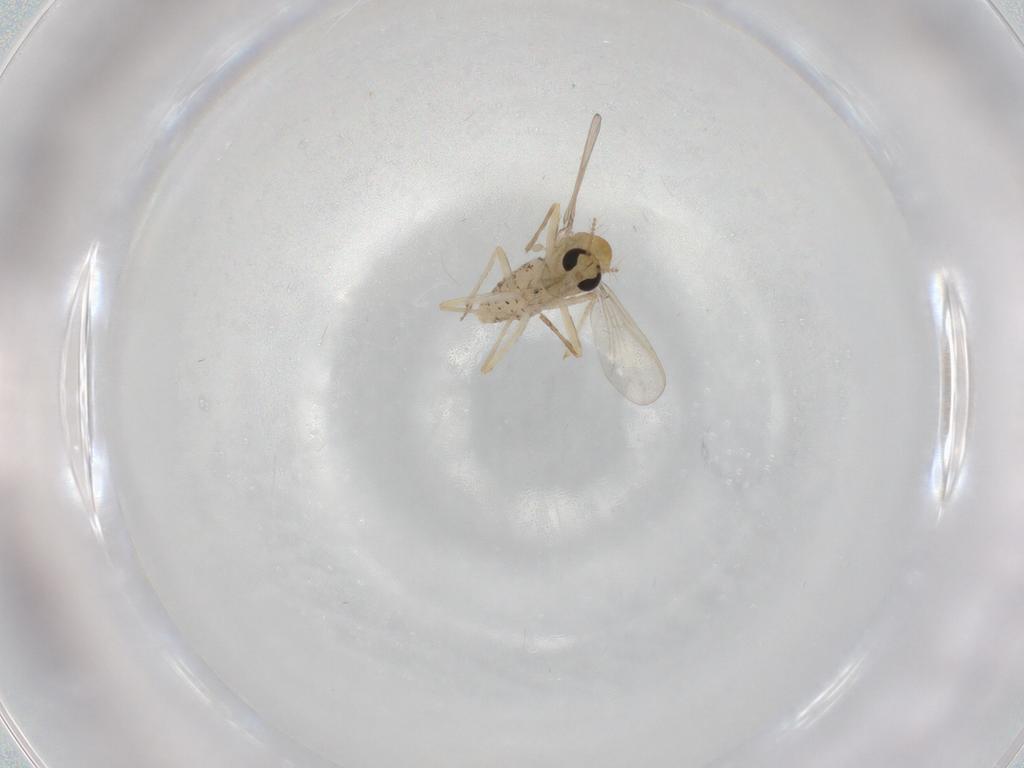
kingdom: Animalia
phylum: Arthropoda
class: Insecta
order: Diptera
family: Chironomidae
